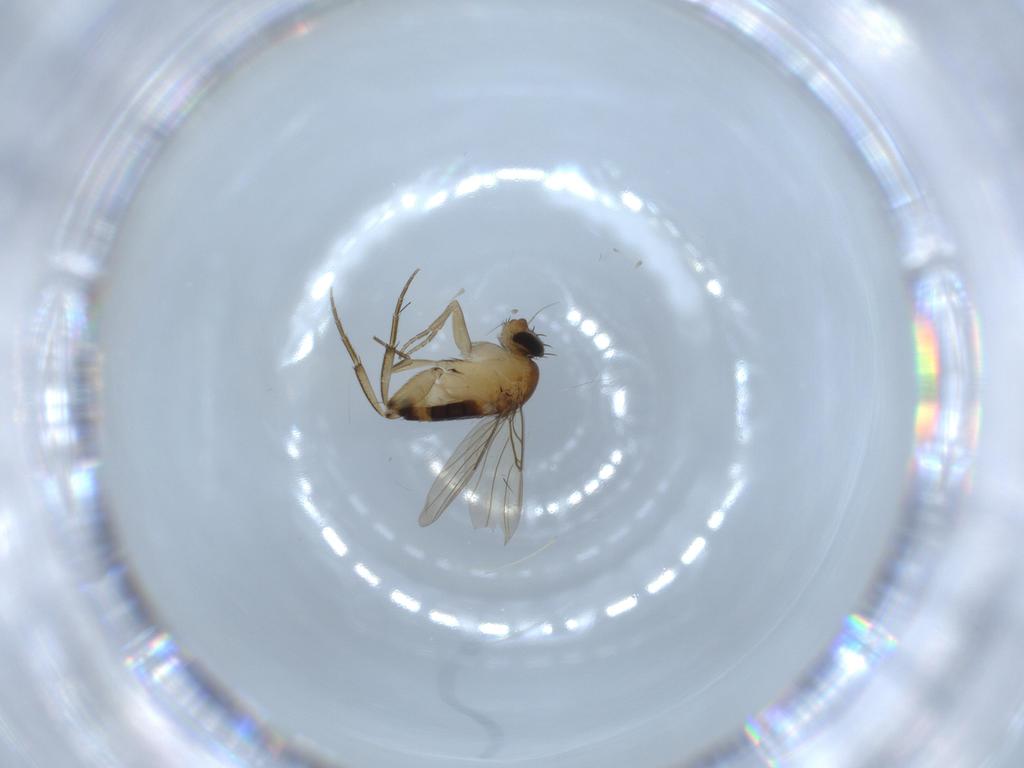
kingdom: Animalia
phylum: Arthropoda
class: Insecta
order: Diptera
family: Phoridae
